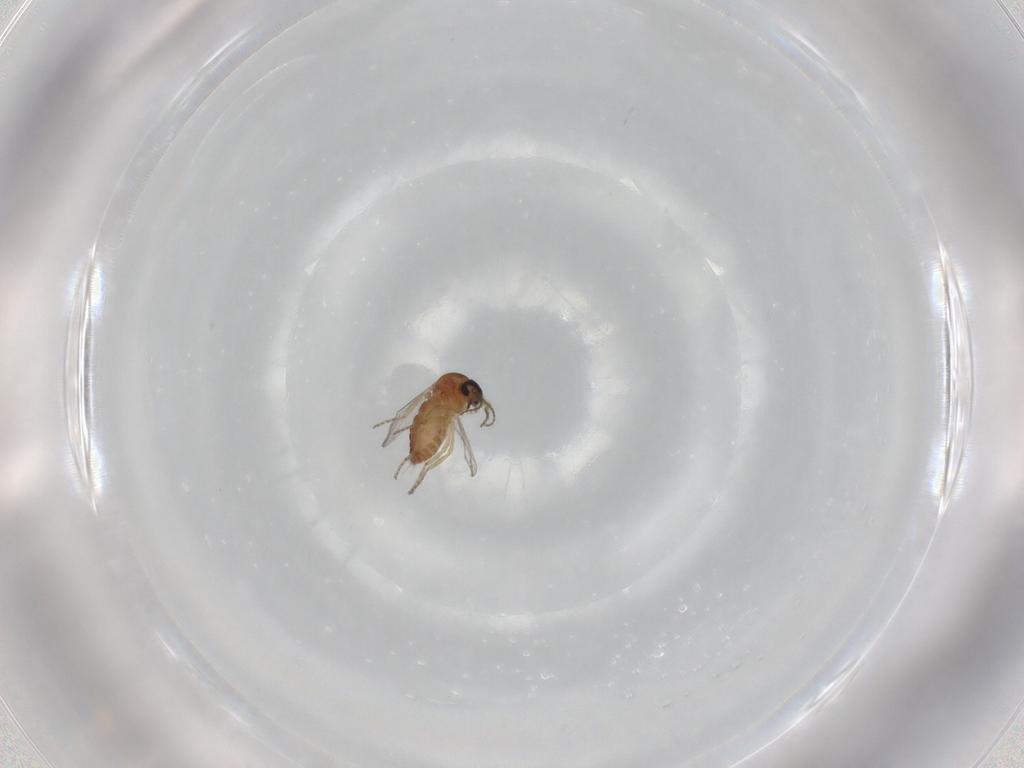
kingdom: Animalia
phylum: Arthropoda
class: Insecta
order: Diptera
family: Ceratopogonidae
